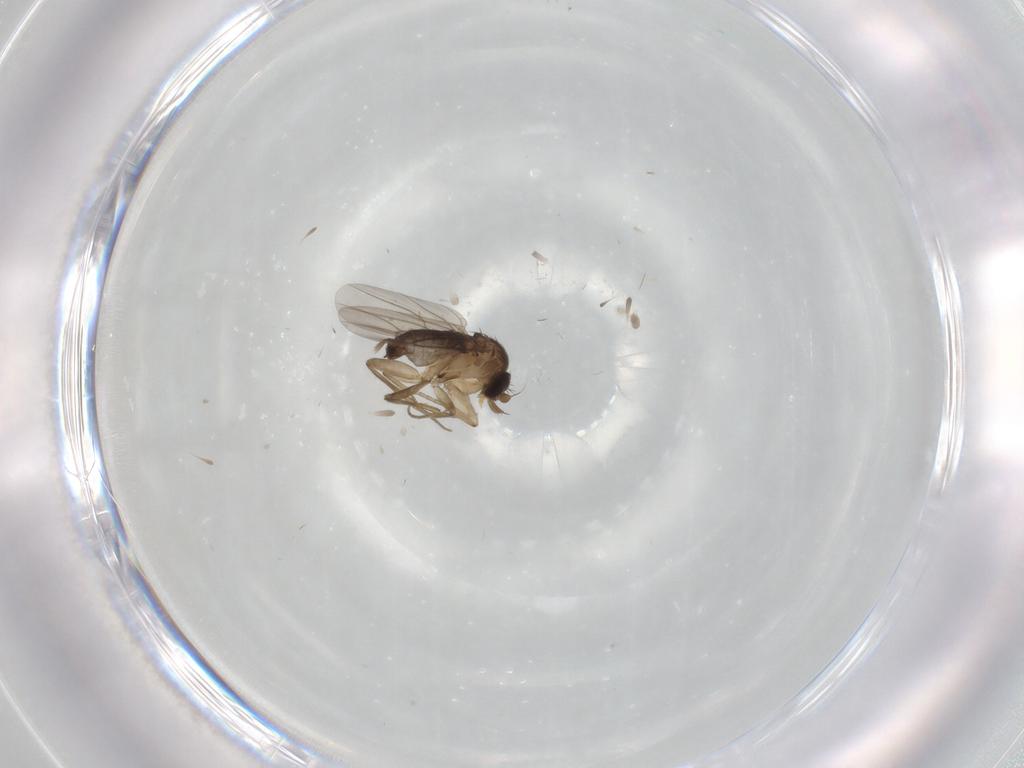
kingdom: Animalia
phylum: Arthropoda
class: Insecta
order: Diptera
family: Phoridae
